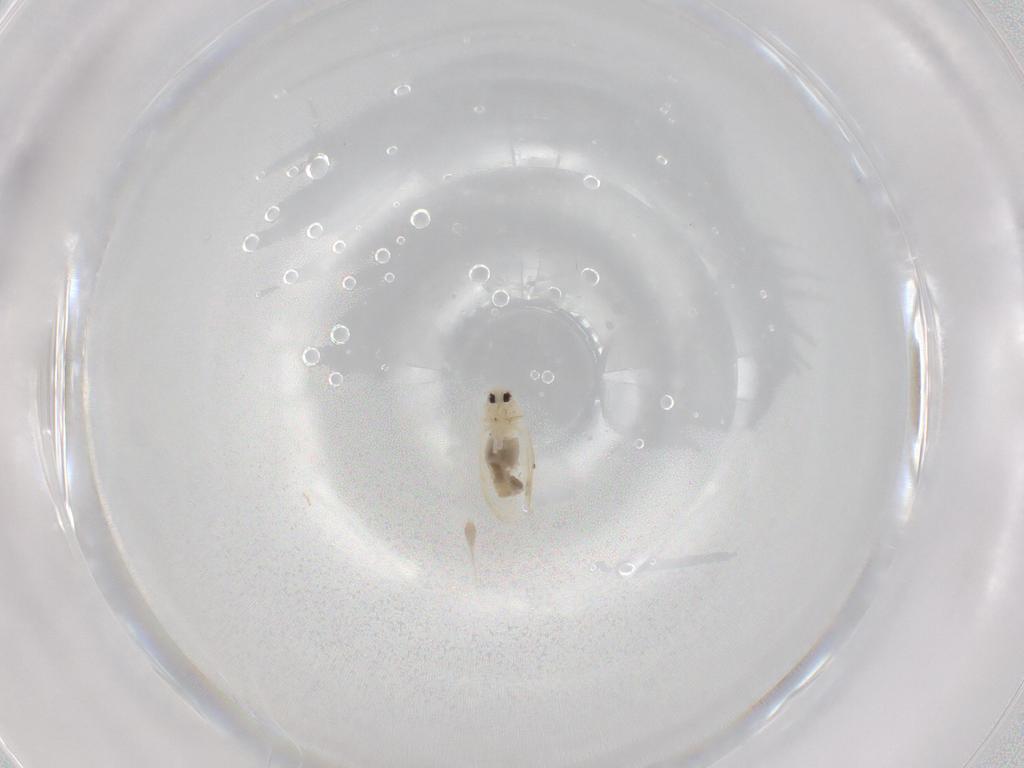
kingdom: Animalia
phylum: Arthropoda
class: Insecta
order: Hemiptera
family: Aleyrodidae
